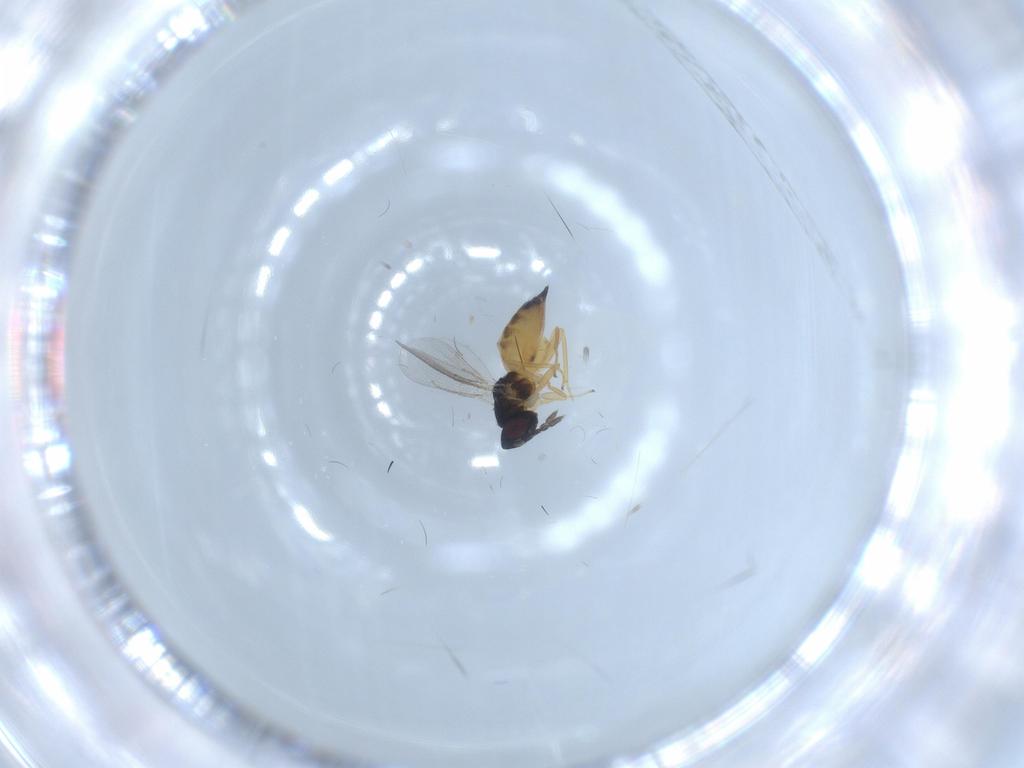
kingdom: Animalia
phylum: Arthropoda
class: Insecta
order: Hymenoptera
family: Eulophidae
